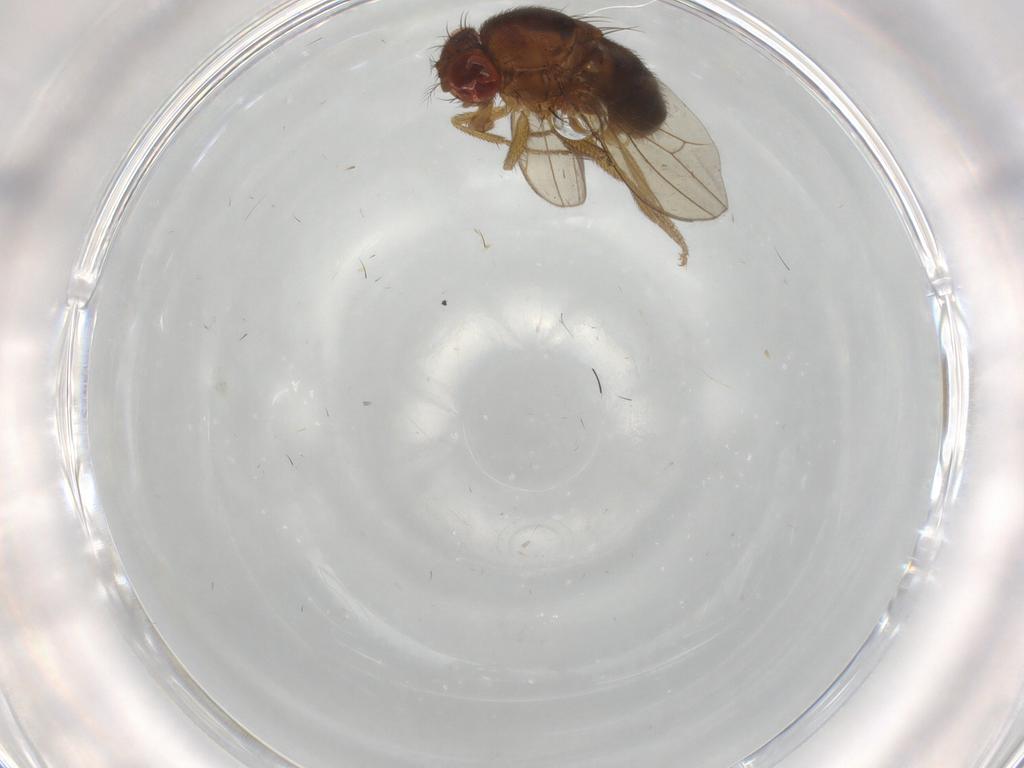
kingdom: Animalia
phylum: Arthropoda
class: Insecta
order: Diptera
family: Drosophilidae
